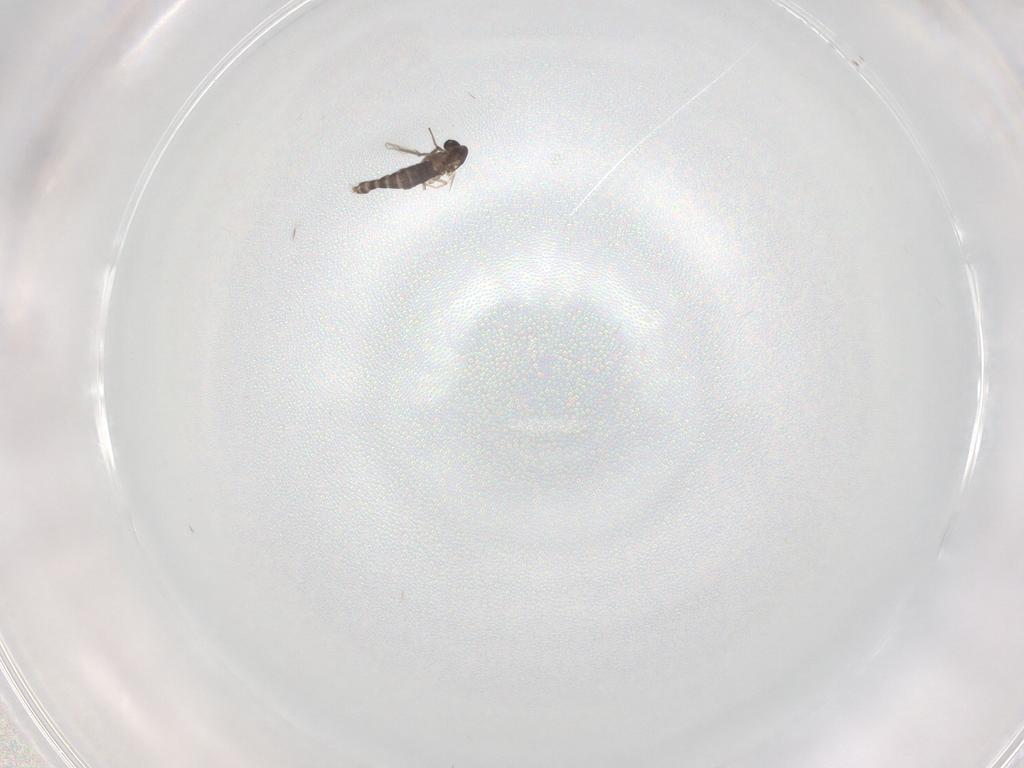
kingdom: Animalia
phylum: Arthropoda
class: Insecta
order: Diptera
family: Chironomidae
